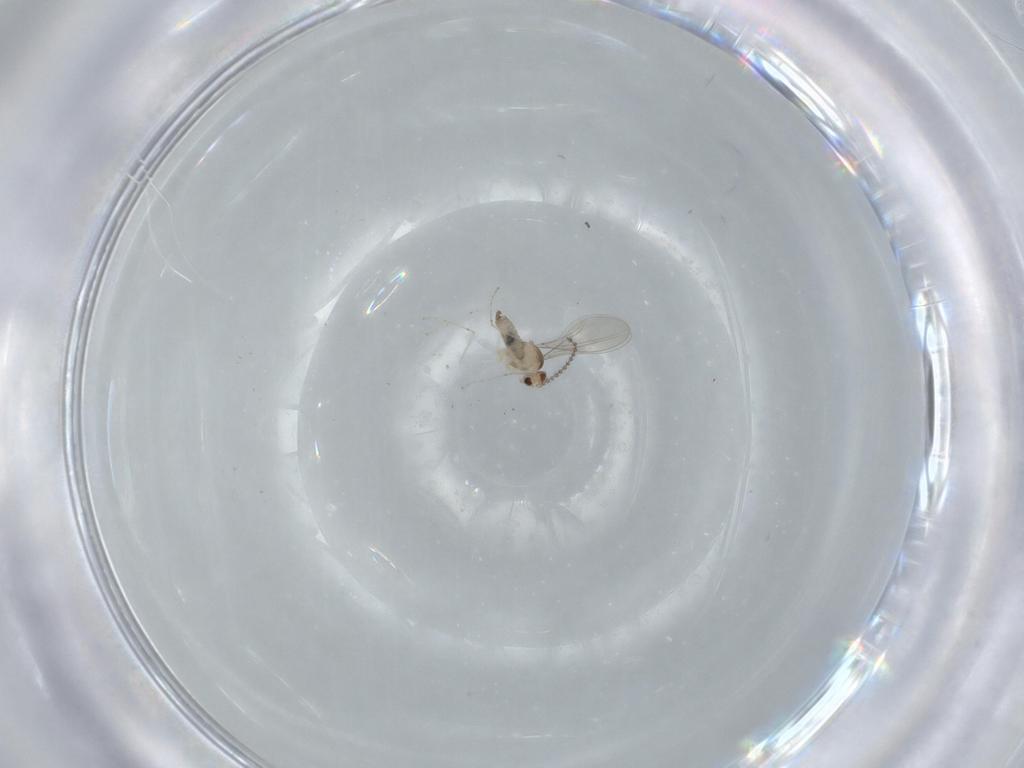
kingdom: Animalia
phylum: Arthropoda
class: Insecta
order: Diptera
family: Cecidomyiidae
